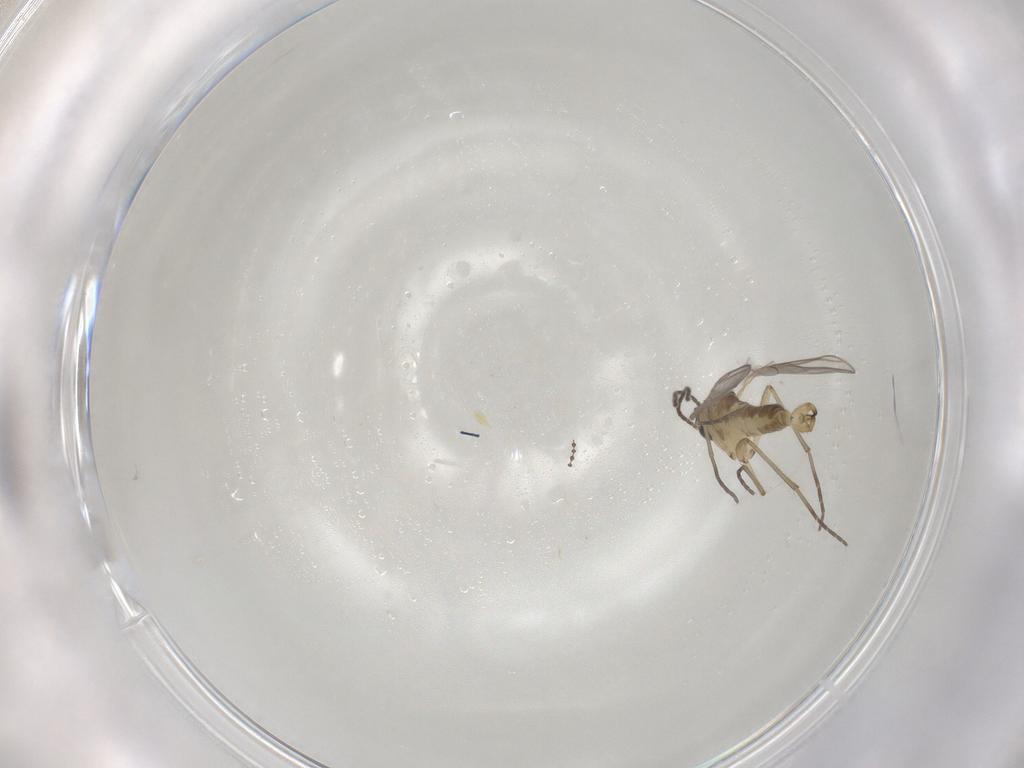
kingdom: Animalia
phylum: Arthropoda
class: Insecta
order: Diptera
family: Cecidomyiidae
